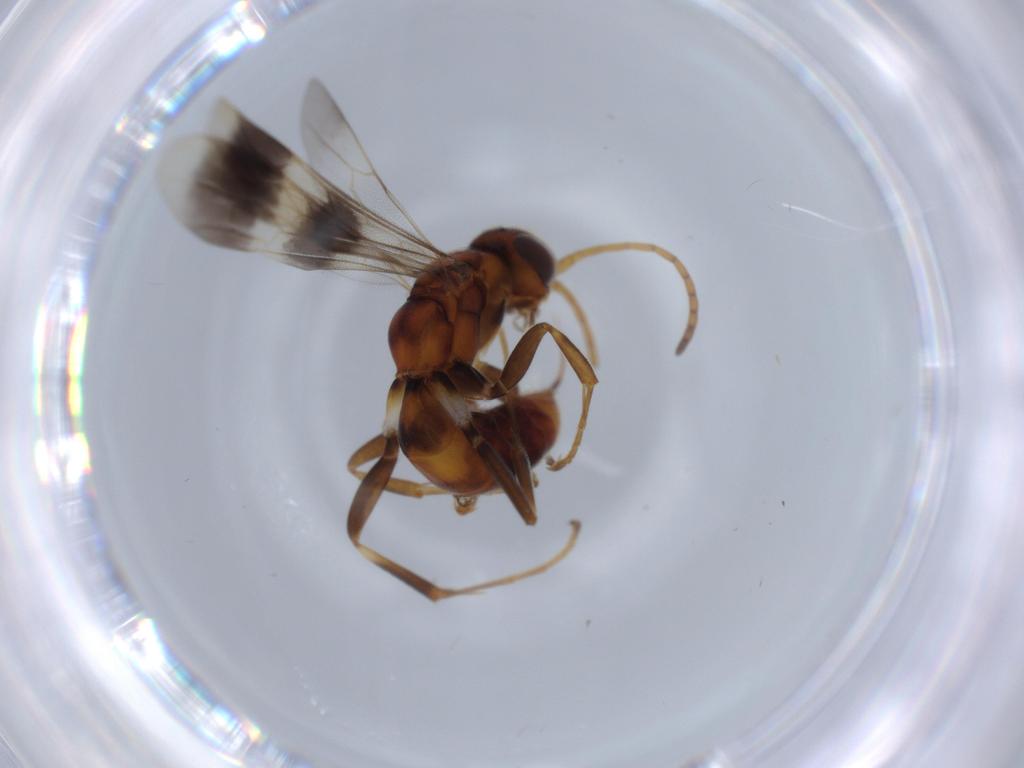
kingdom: Animalia
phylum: Arthropoda
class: Insecta
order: Hymenoptera
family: Pompilidae
